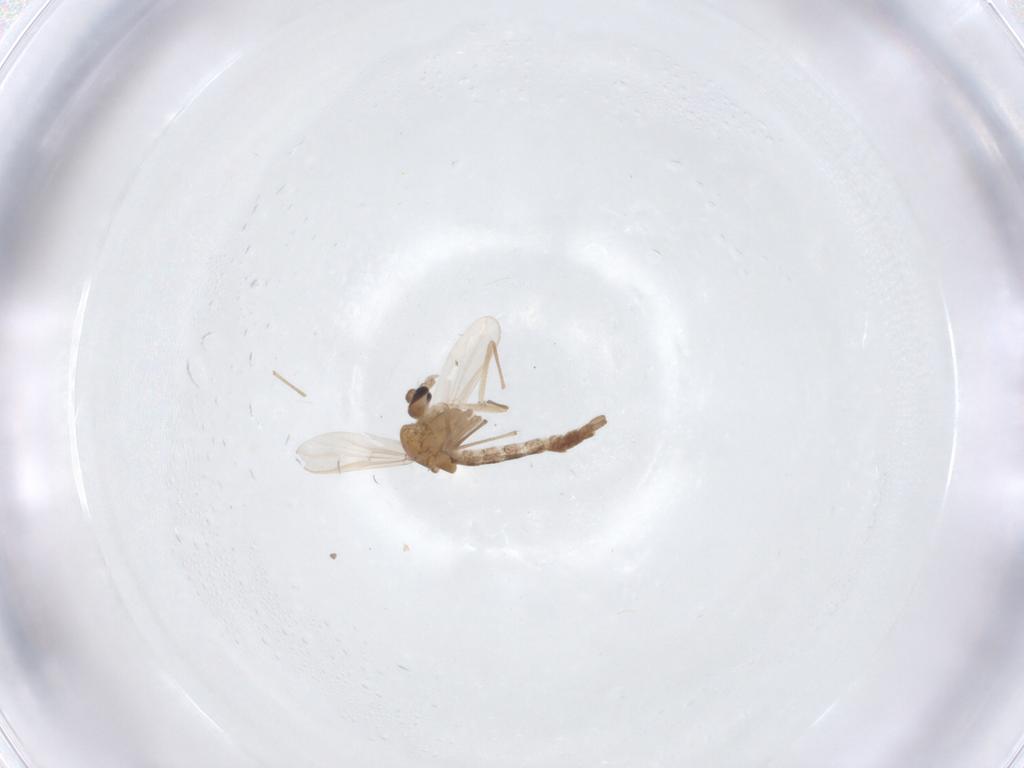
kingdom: Animalia
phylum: Arthropoda
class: Insecta
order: Diptera
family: Chironomidae
